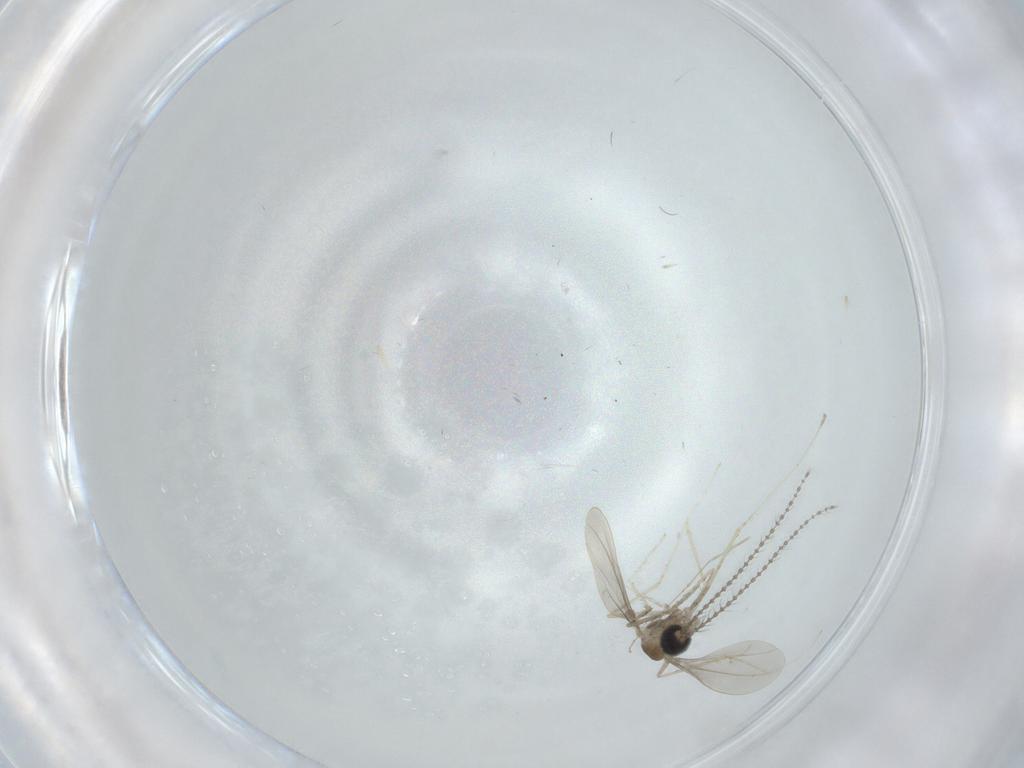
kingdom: Animalia
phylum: Arthropoda
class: Insecta
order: Diptera
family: Cecidomyiidae
